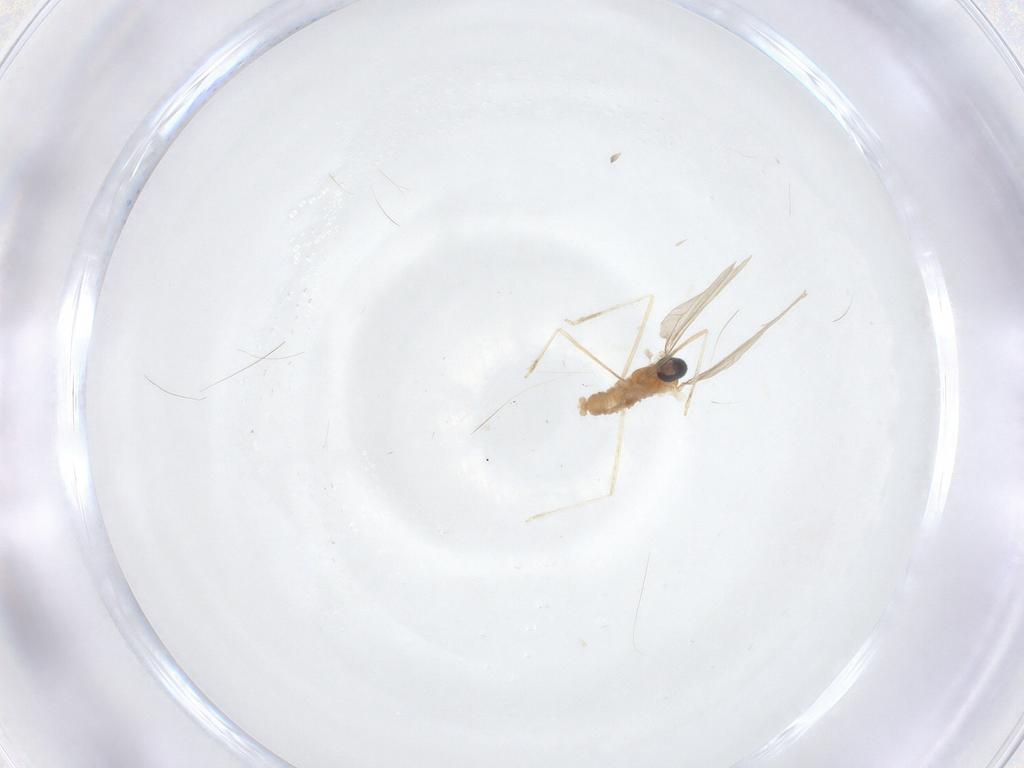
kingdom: Animalia
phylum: Arthropoda
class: Insecta
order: Diptera
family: Cecidomyiidae
